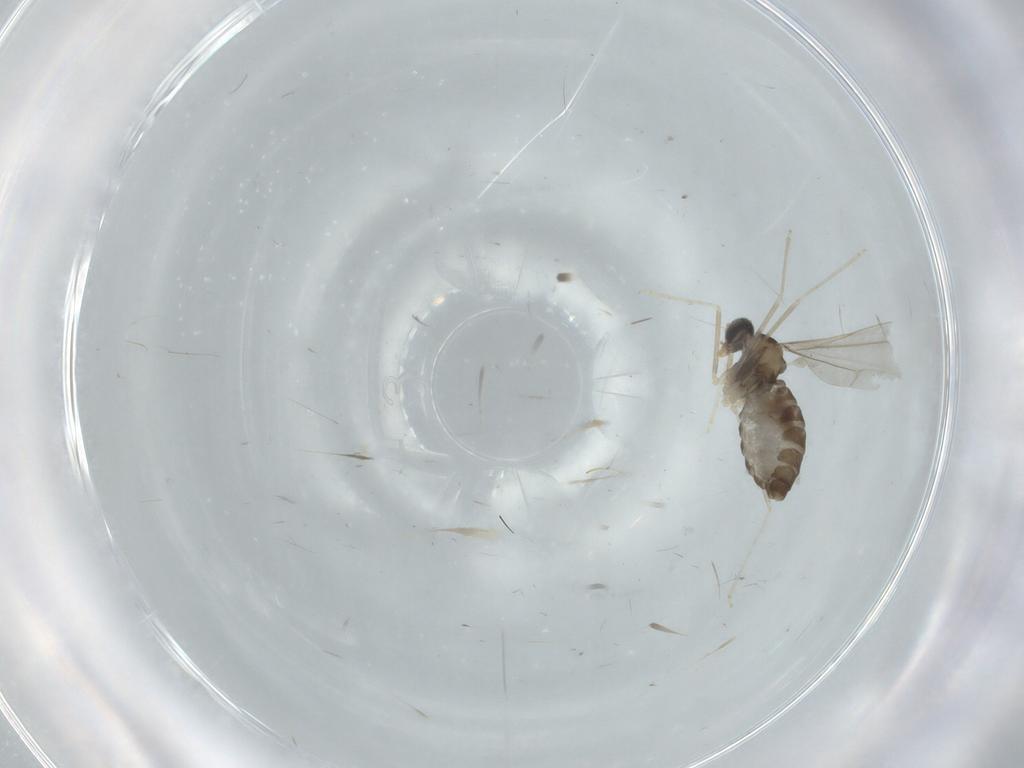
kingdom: Animalia
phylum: Arthropoda
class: Insecta
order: Diptera
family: Cecidomyiidae
